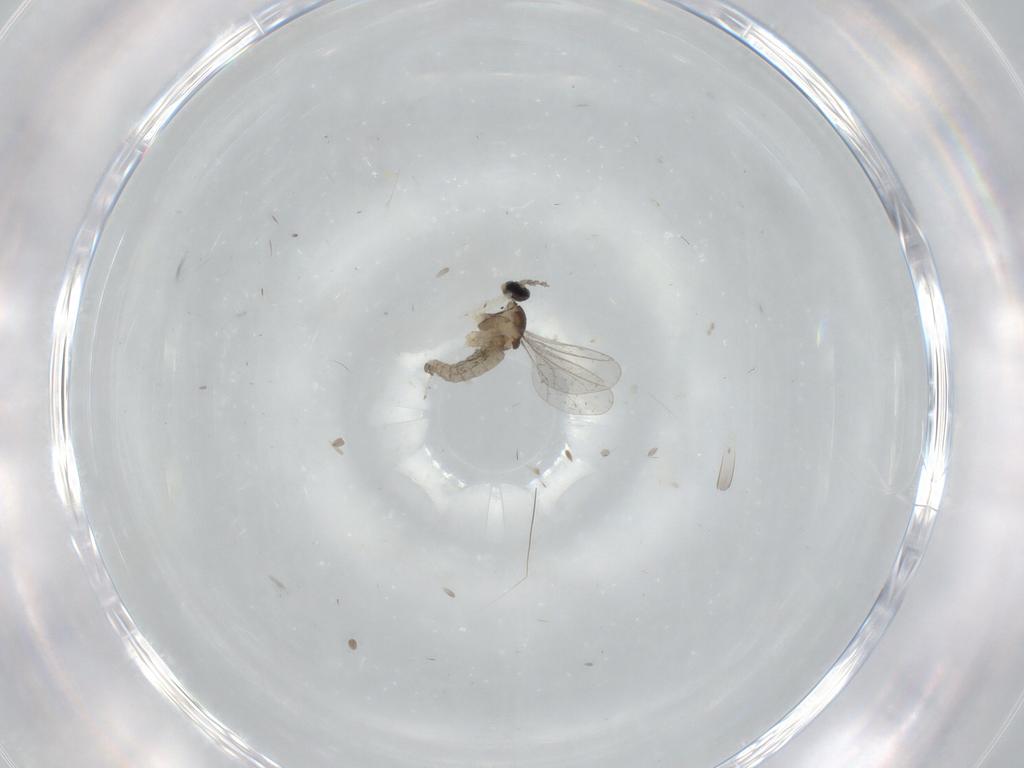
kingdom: Animalia
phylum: Arthropoda
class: Insecta
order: Diptera
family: Cecidomyiidae
